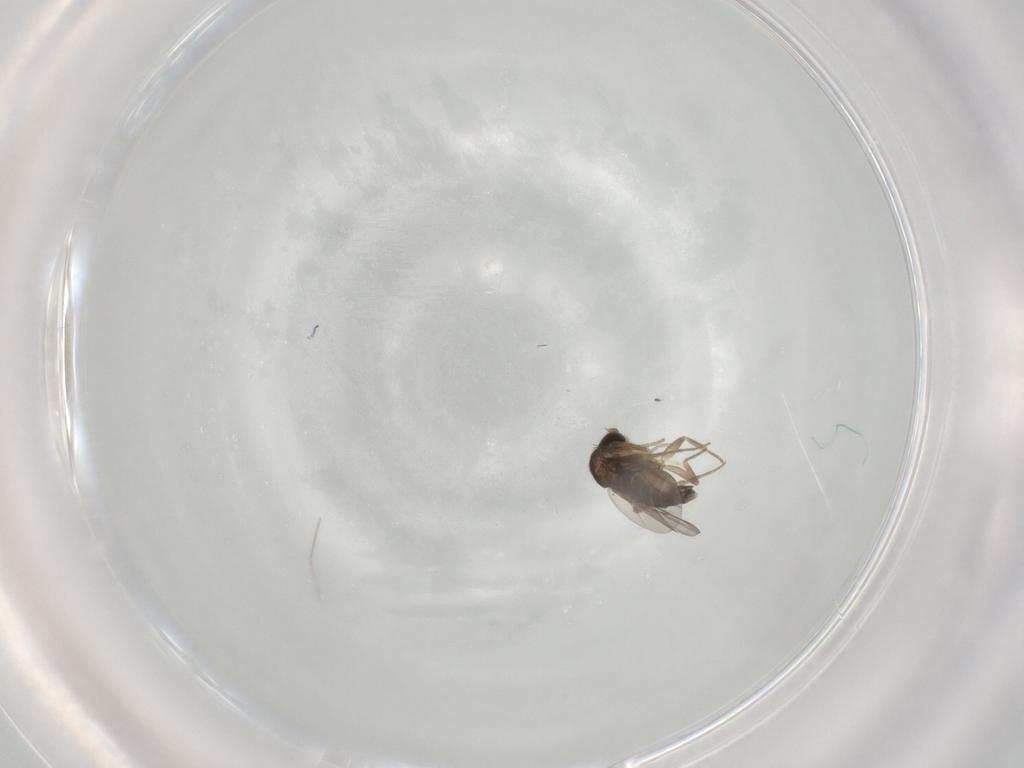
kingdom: Animalia
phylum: Arthropoda
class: Insecta
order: Diptera
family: Phoridae
